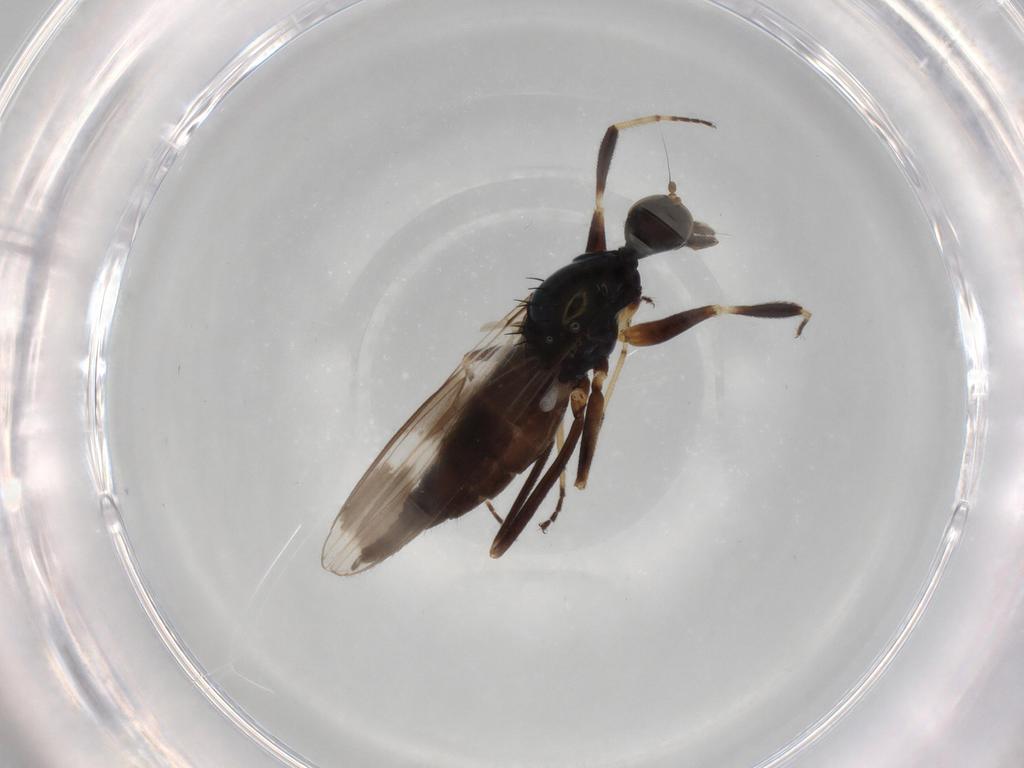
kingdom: Animalia
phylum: Arthropoda
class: Insecta
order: Diptera
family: Hybotidae
